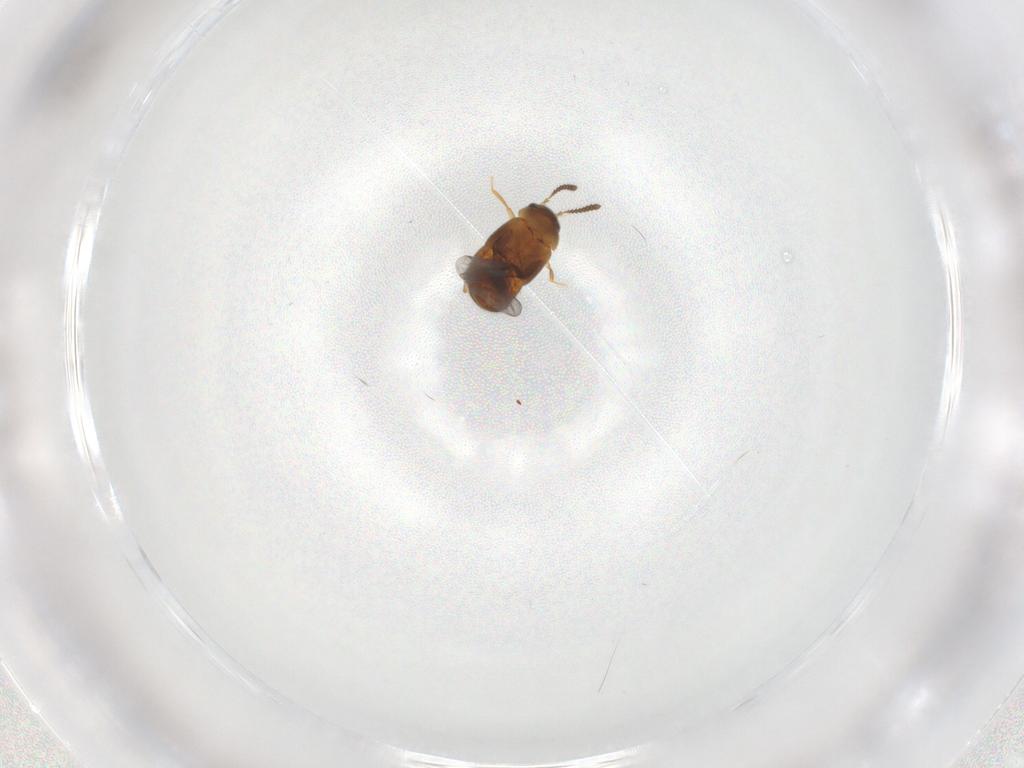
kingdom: Animalia
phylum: Arthropoda
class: Insecta
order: Coleoptera
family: Staphylinidae
